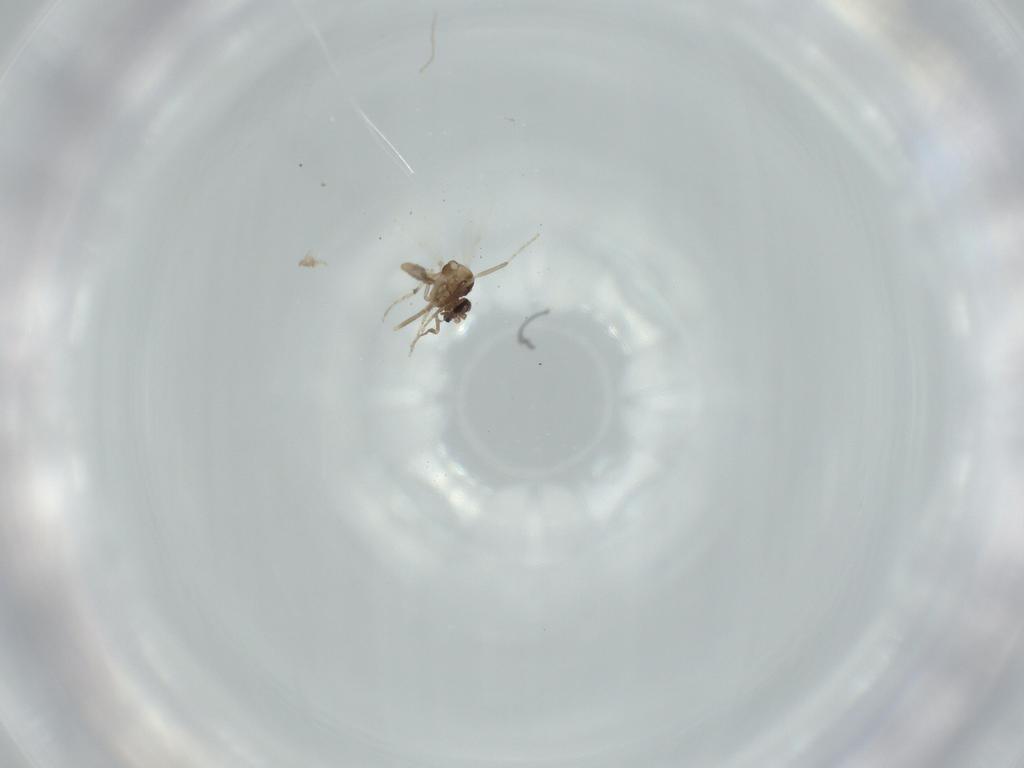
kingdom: Animalia
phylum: Arthropoda
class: Insecta
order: Diptera
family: Ceratopogonidae
